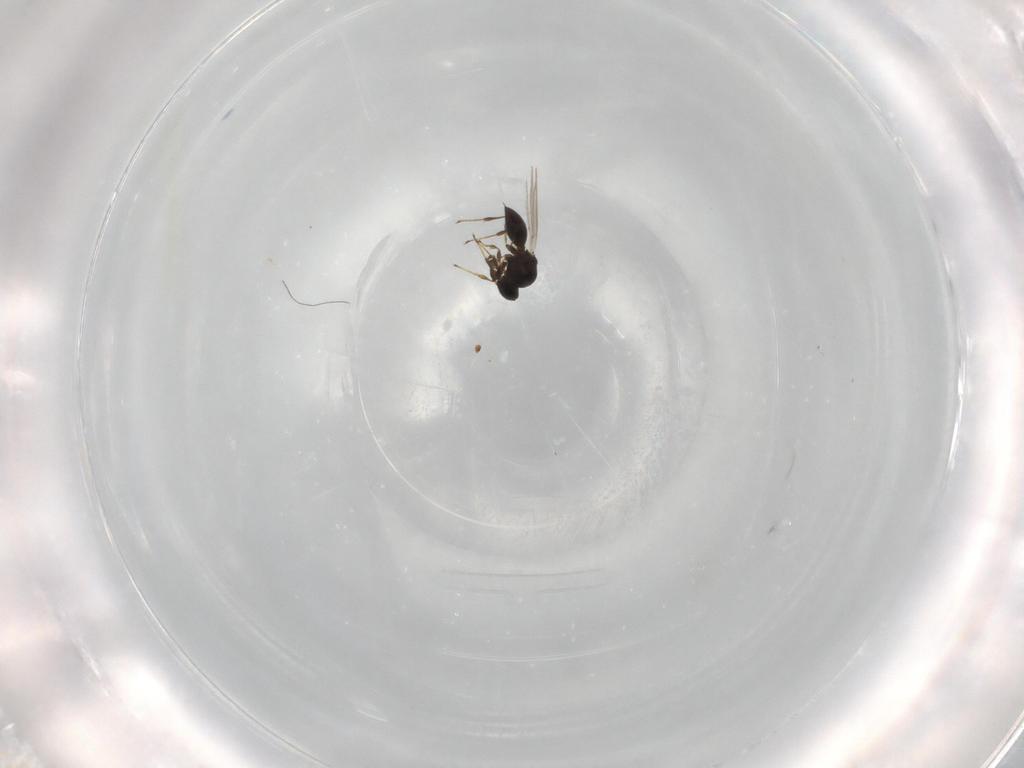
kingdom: Animalia
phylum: Arthropoda
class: Insecta
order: Hymenoptera
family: Platygastridae
